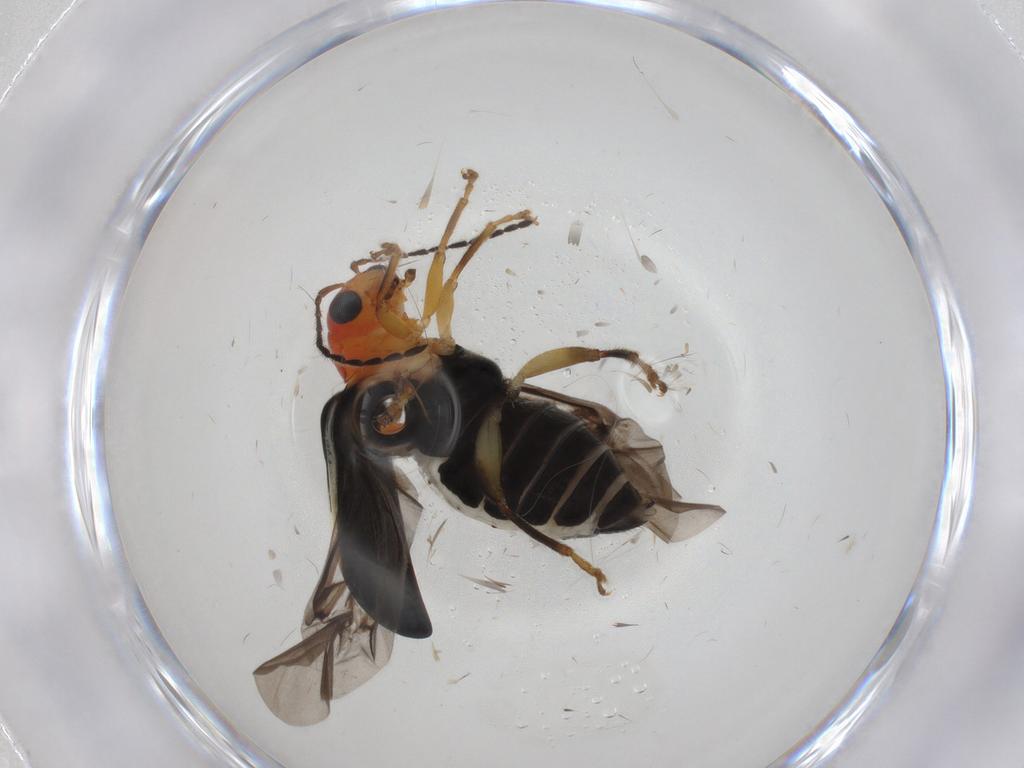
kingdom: Animalia
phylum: Arthropoda
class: Insecta
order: Coleoptera
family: Chrysomelidae
